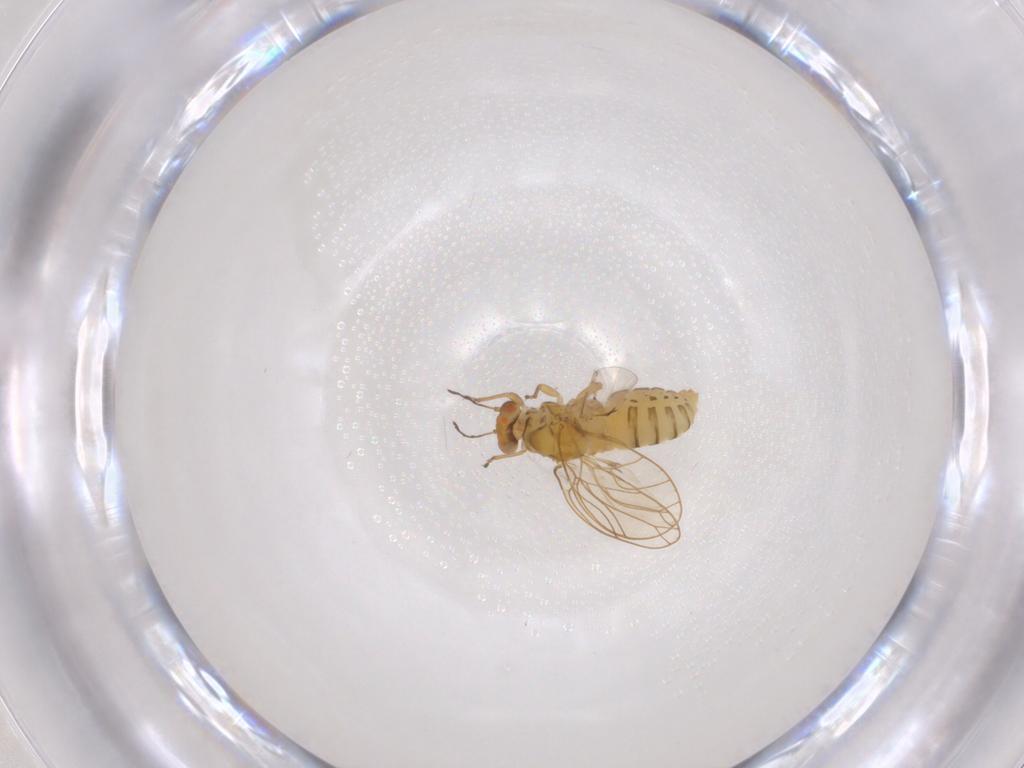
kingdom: Animalia
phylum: Arthropoda
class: Insecta
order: Hemiptera
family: Psylloidea_incertae_sedis
